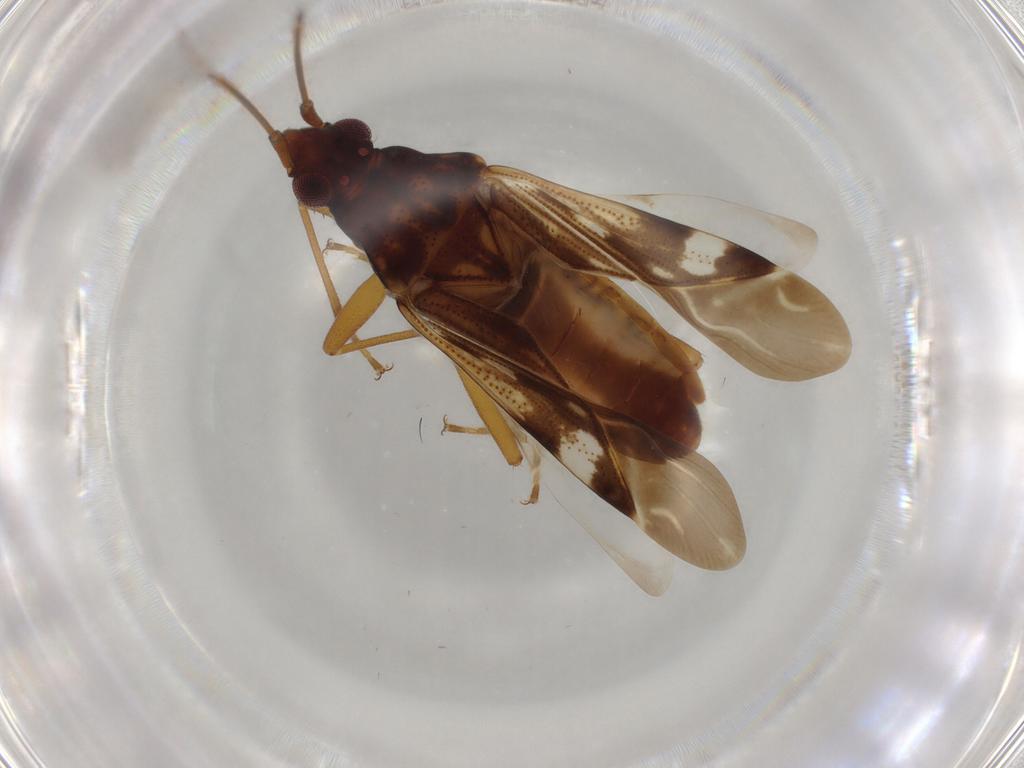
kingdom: Animalia
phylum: Arthropoda
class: Insecta
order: Hemiptera
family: Rhyparochromidae
